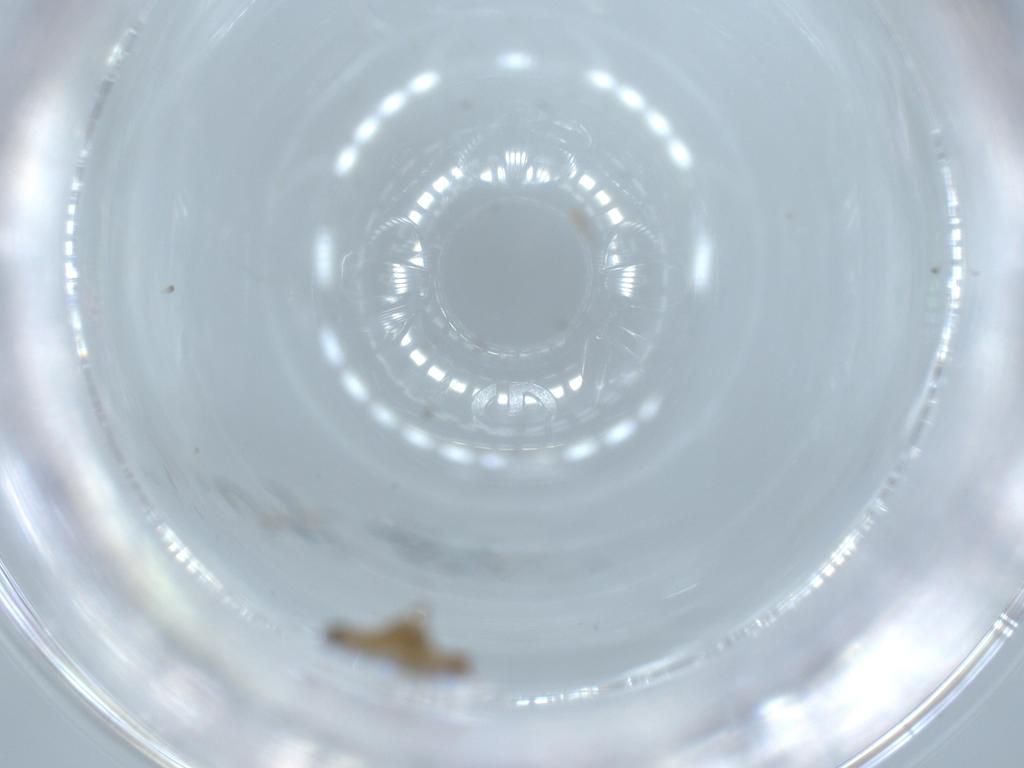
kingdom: Animalia
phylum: Arthropoda
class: Insecta
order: Diptera
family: Chironomidae
